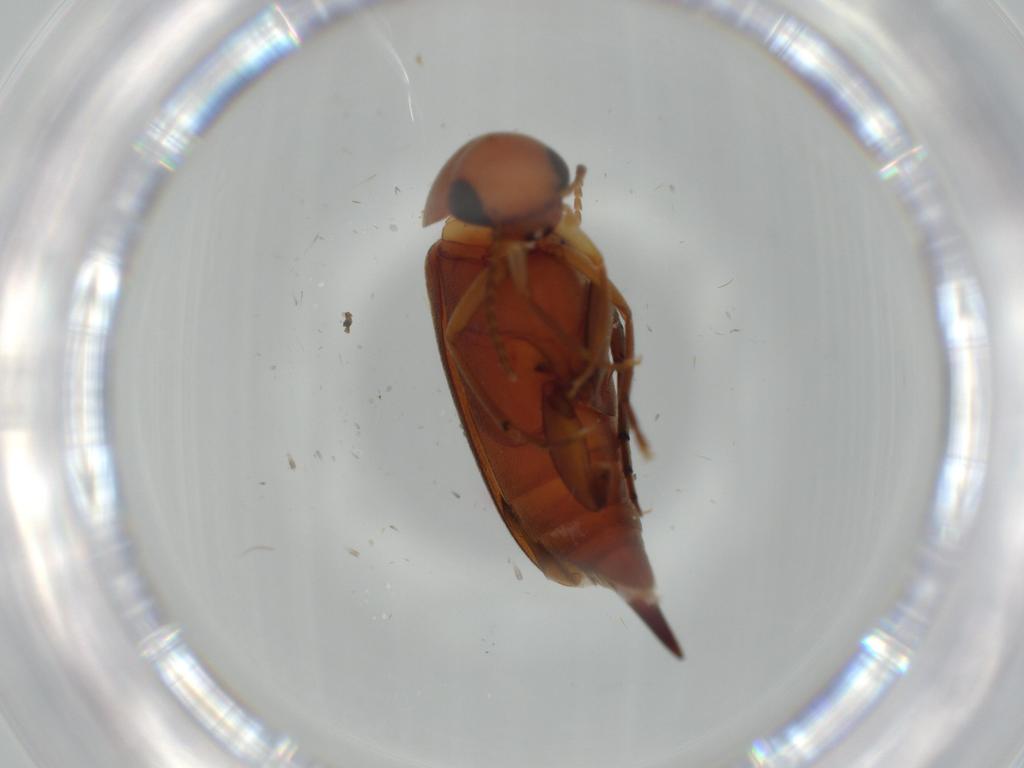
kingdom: Animalia
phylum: Arthropoda
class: Insecta
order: Coleoptera
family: Mordellidae
